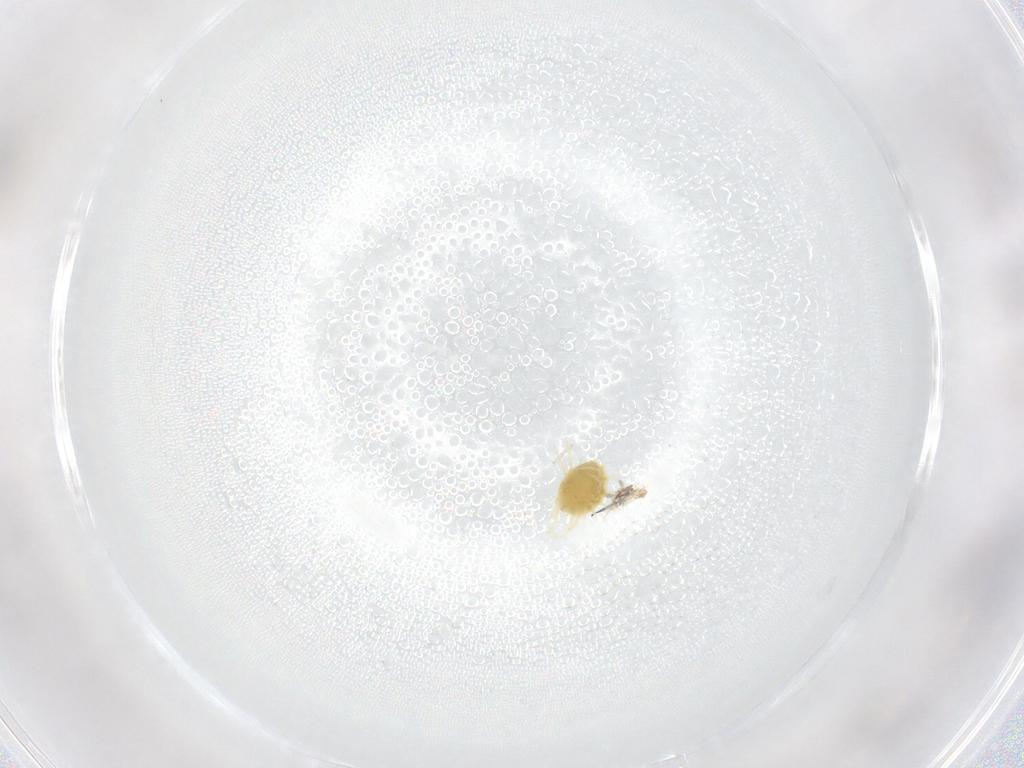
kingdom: Animalia
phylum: Arthropoda
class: Arachnida
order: Trombidiformes
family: Tetranychidae
